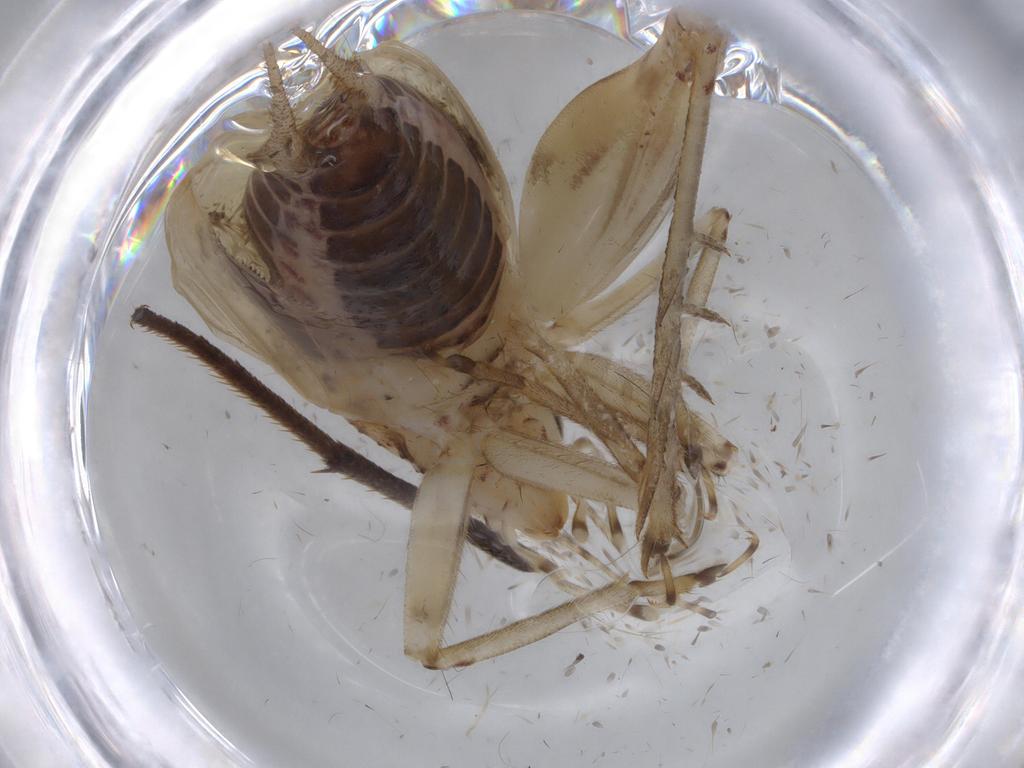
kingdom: Animalia
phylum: Arthropoda
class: Insecta
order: Orthoptera
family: Trigonidiidae
